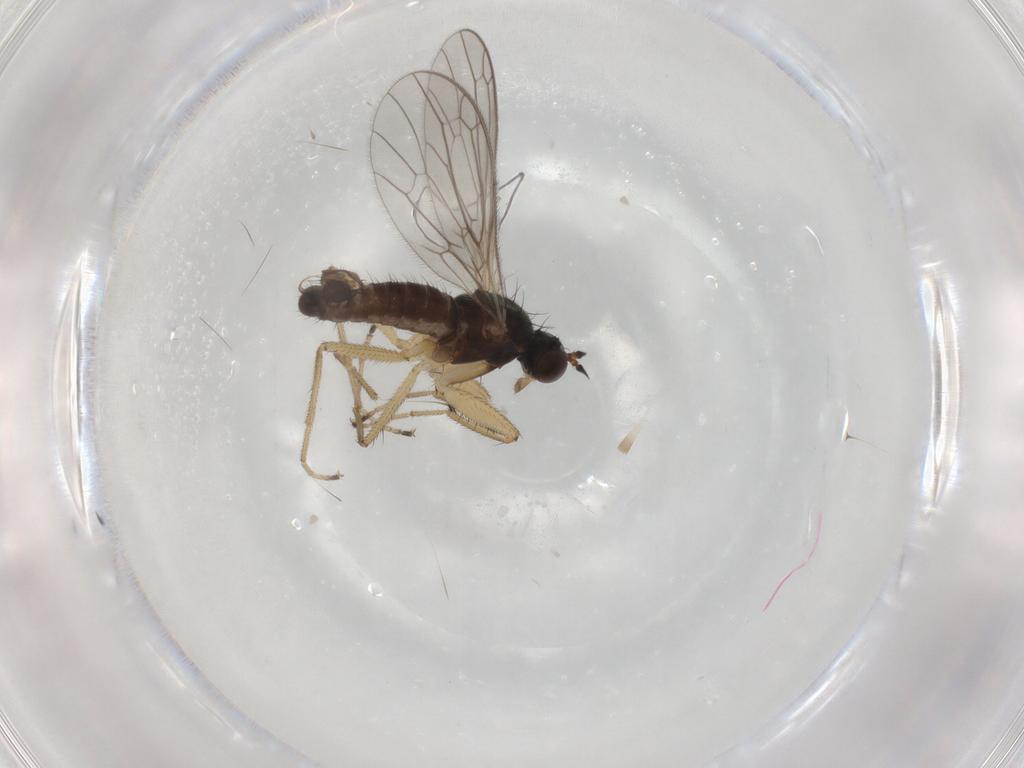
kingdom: Animalia
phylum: Arthropoda
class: Insecta
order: Diptera
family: Empididae
